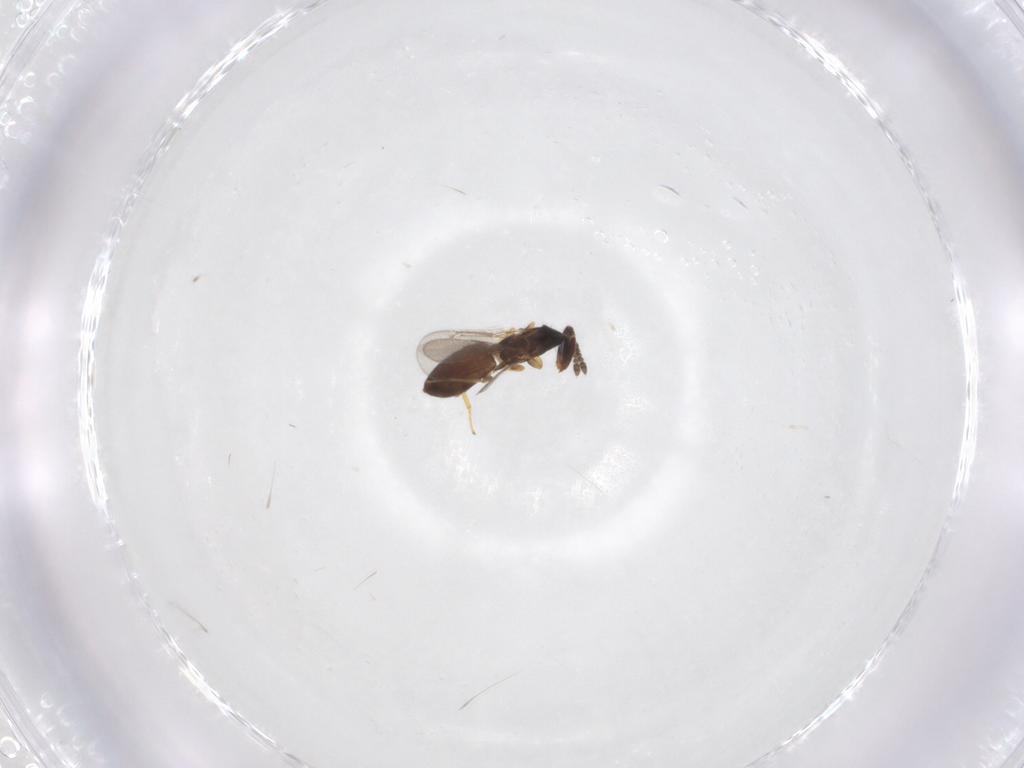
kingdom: Animalia
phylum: Arthropoda
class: Insecta
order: Hymenoptera
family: Eulophidae
